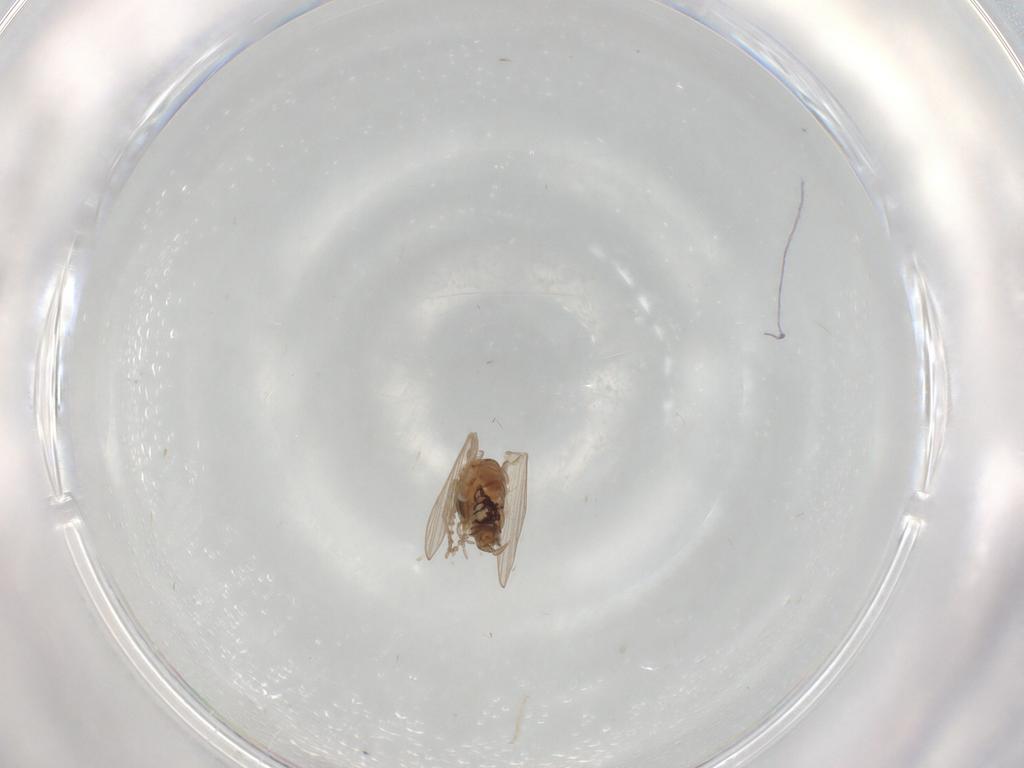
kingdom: Animalia
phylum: Arthropoda
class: Insecta
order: Diptera
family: Psychodidae
